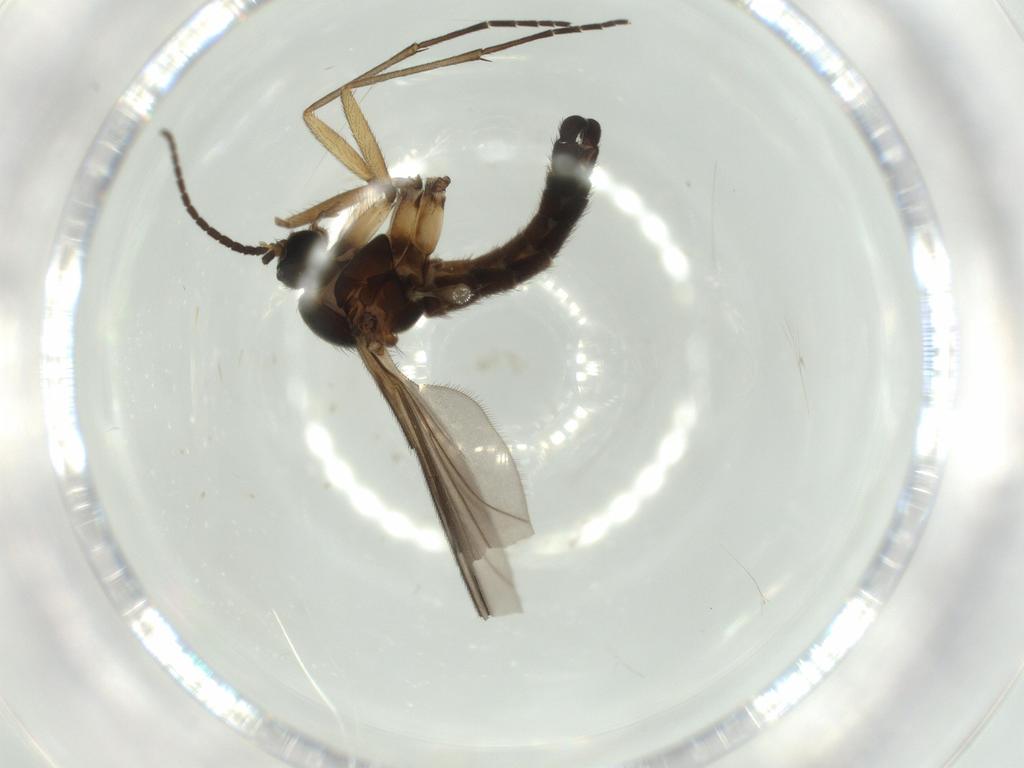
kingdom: Animalia
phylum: Arthropoda
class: Insecta
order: Diptera
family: Sciaridae
